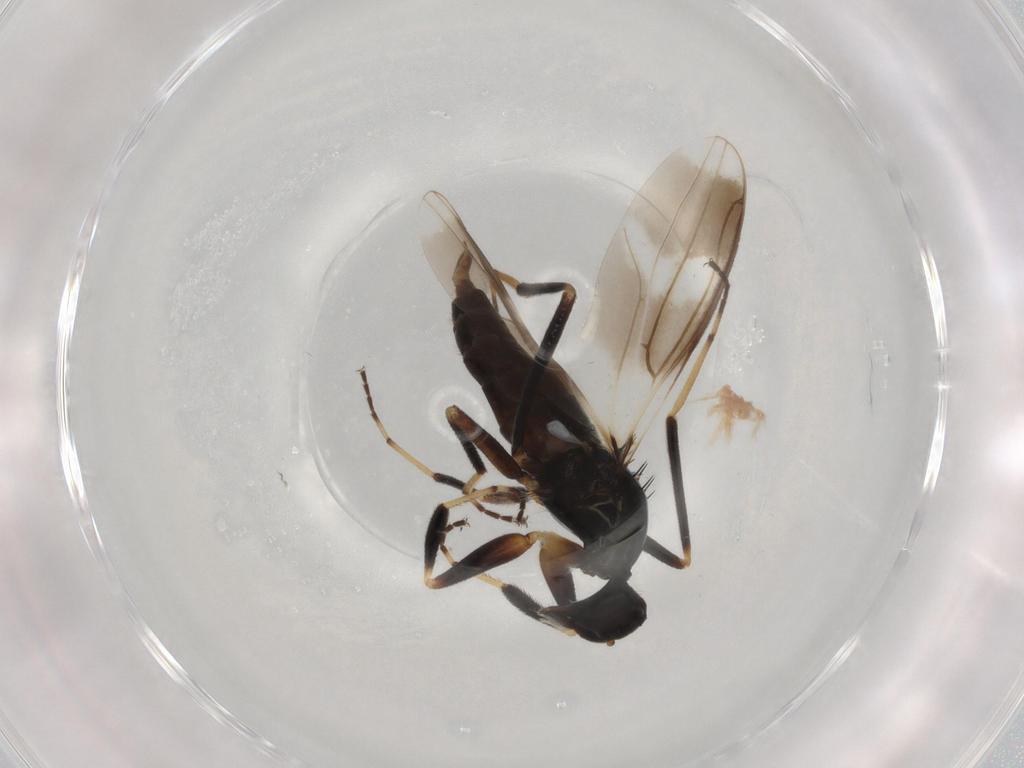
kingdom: Animalia
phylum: Arthropoda
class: Insecta
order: Diptera
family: Hybotidae
